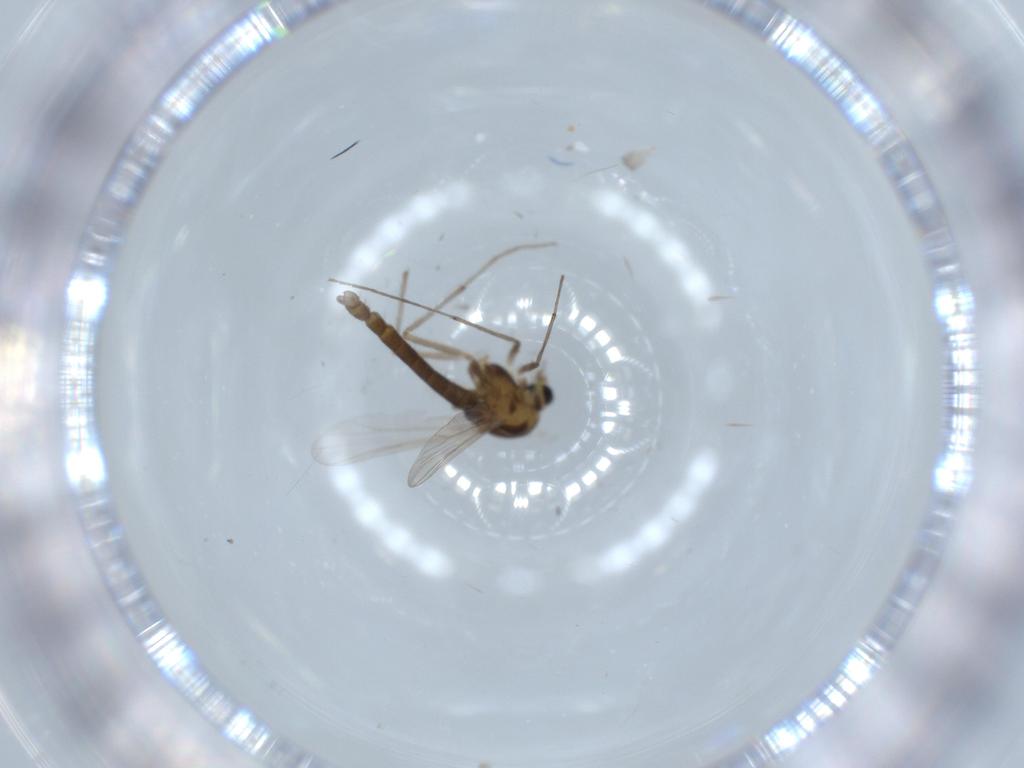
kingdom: Animalia
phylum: Arthropoda
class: Insecta
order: Diptera
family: Chironomidae
